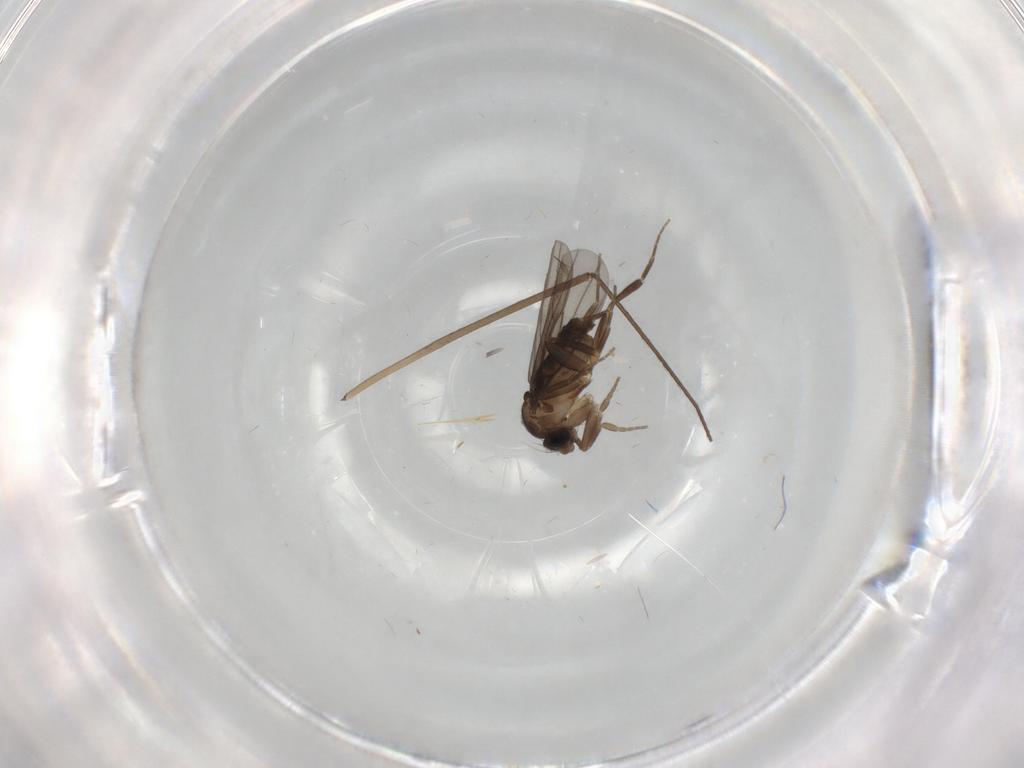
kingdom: Animalia
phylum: Arthropoda
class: Insecta
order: Diptera
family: Phoridae
